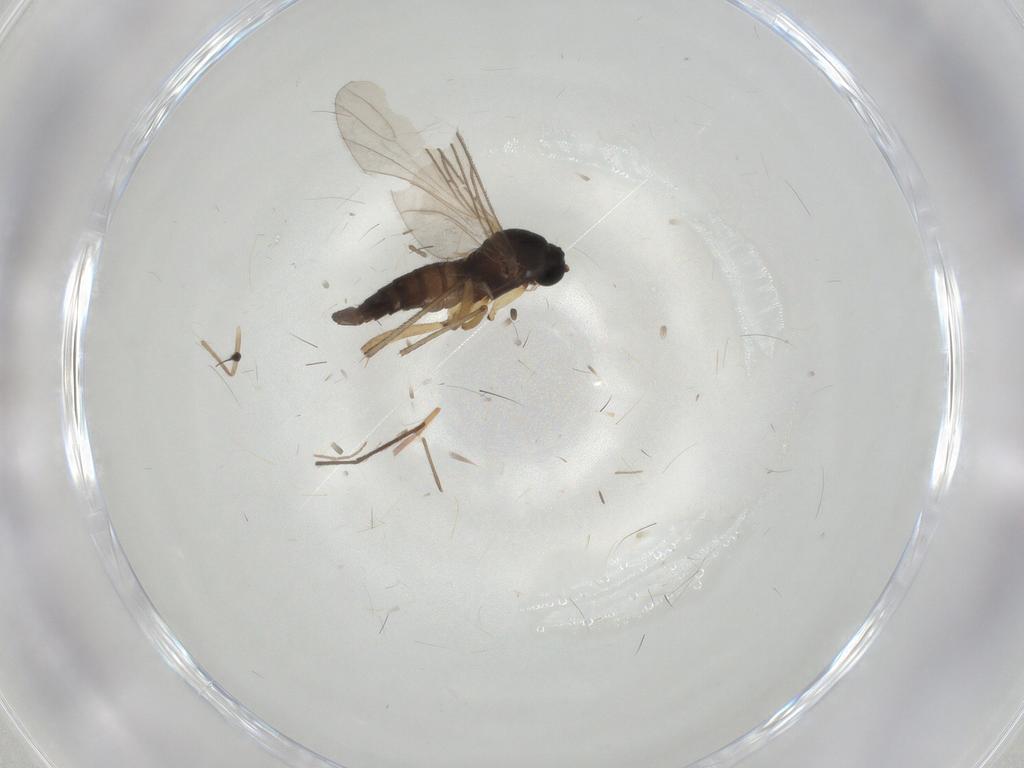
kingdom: Animalia
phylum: Arthropoda
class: Insecta
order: Diptera
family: Sciaridae
